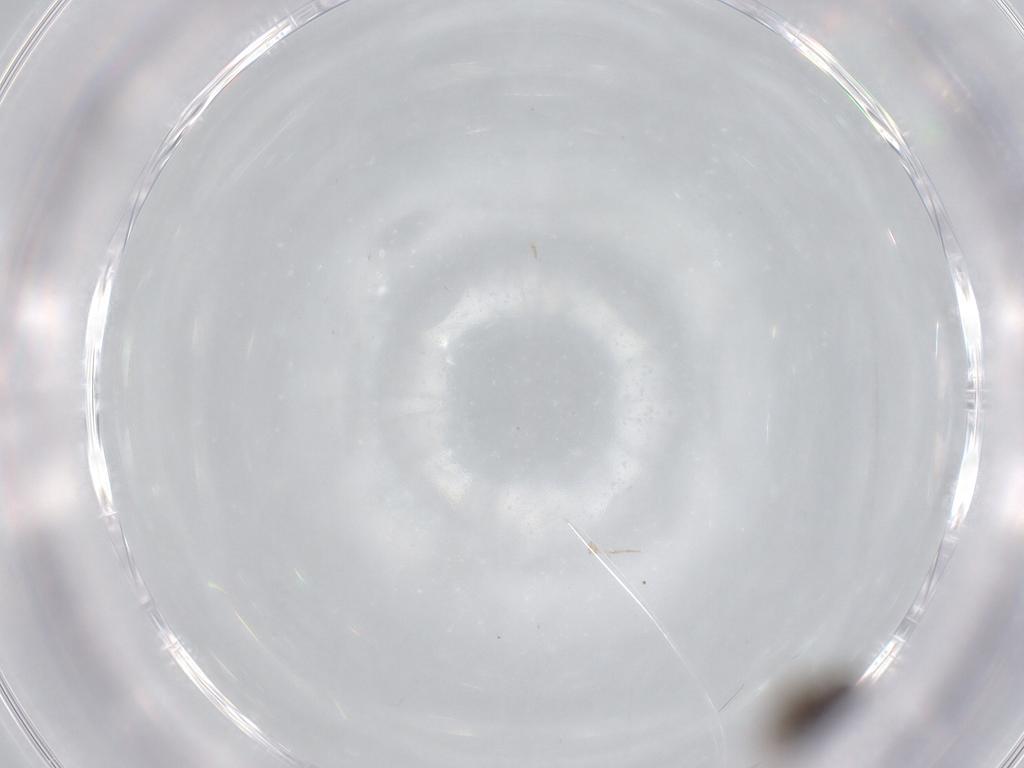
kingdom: Animalia
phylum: Arthropoda
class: Insecta
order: Diptera
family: Phoridae
